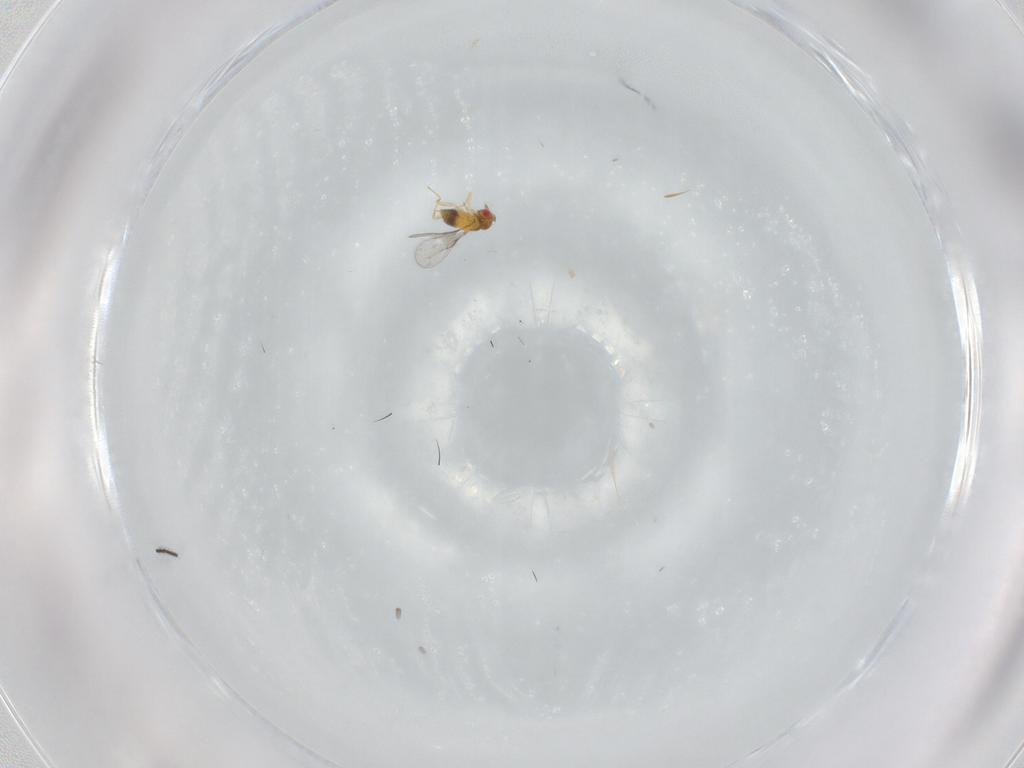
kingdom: Animalia
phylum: Arthropoda
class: Insecta
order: Hymenoptera
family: Trichogrammatidae
